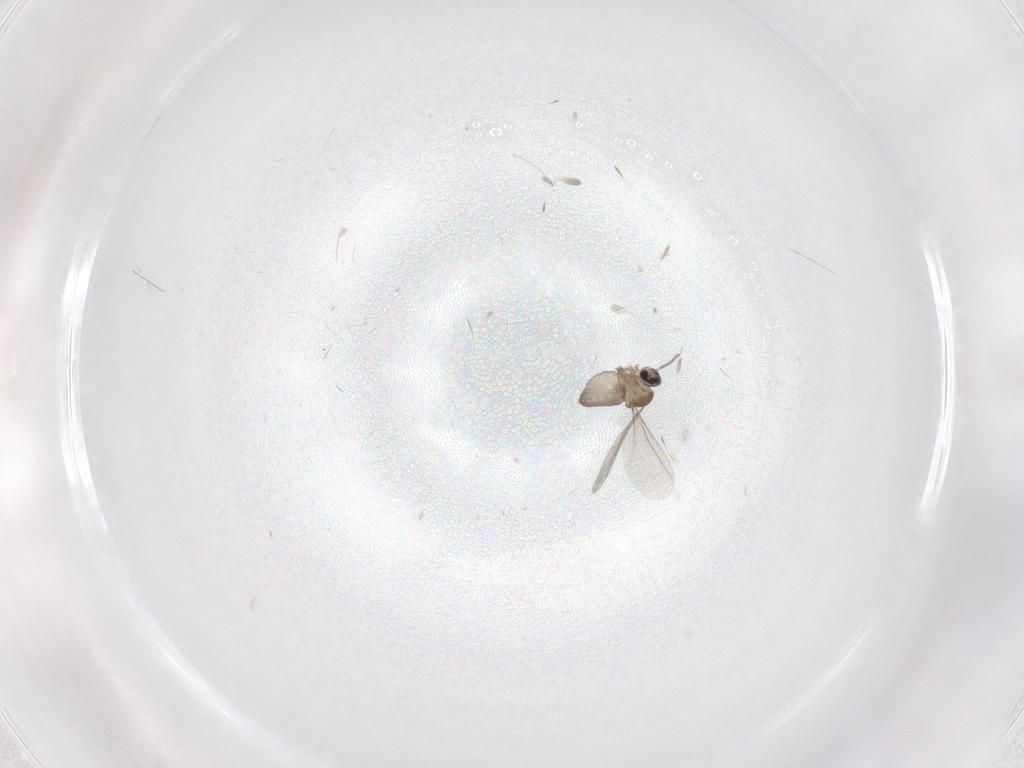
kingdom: Animalia
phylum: Arthropoda
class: Insecta
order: Diptera
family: Cecidomyiidae
